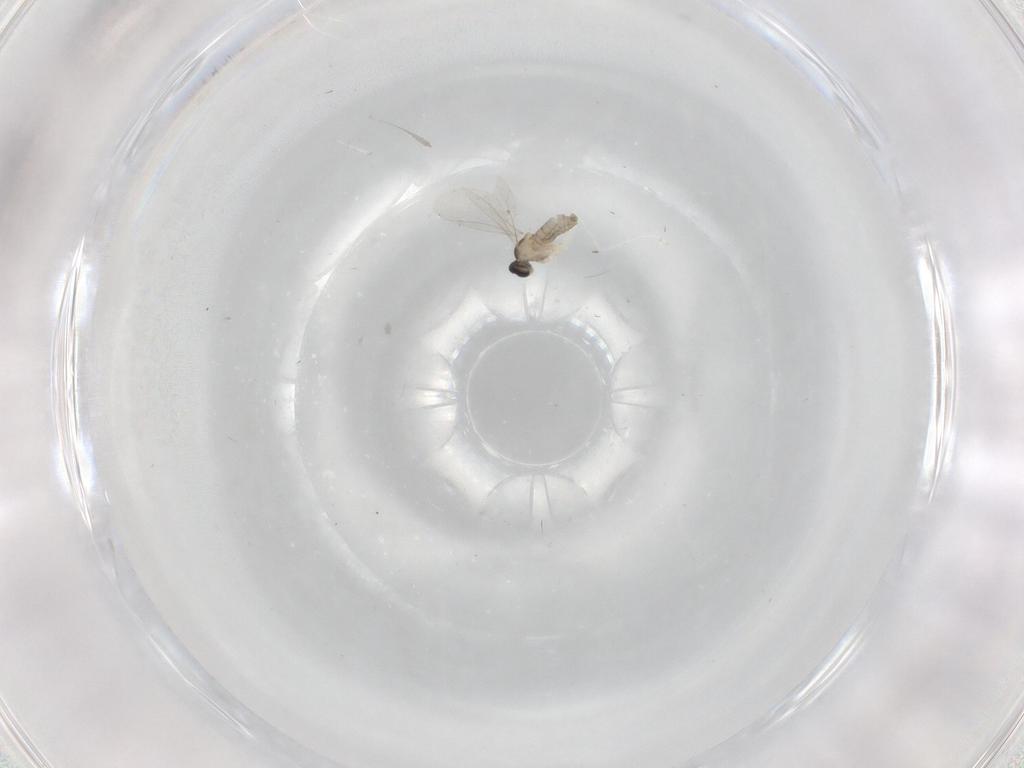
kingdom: Animalia
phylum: Arthropoda
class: Insecta
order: Diptera
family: Cecidomyiidae
